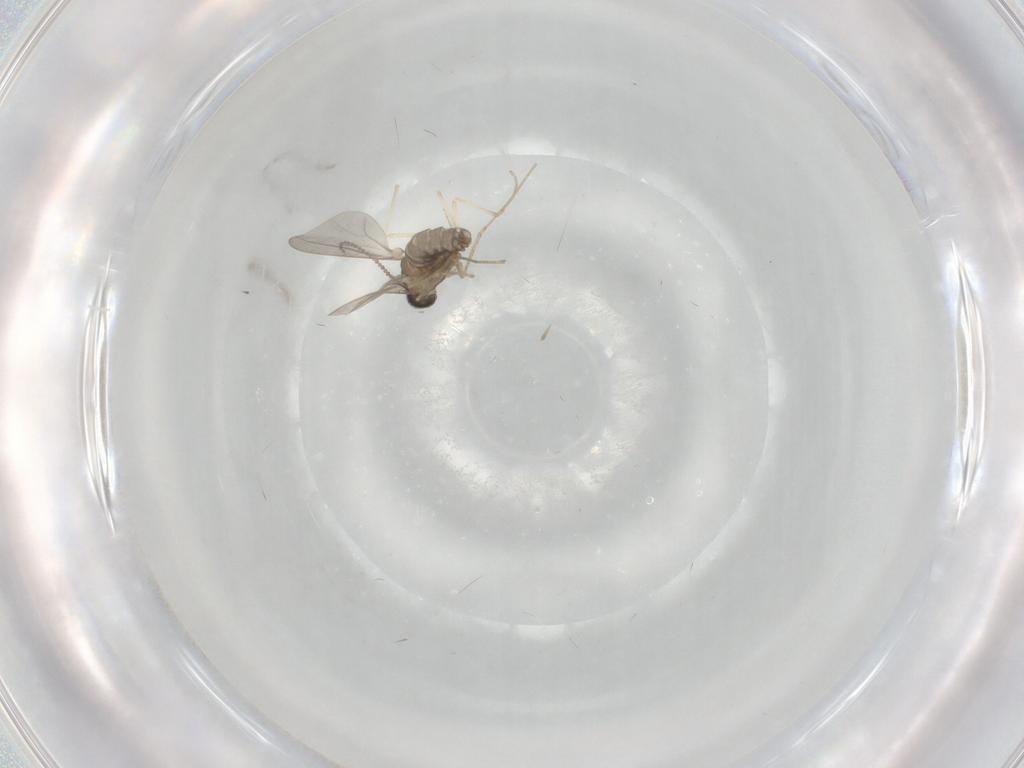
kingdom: Animalia
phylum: Arthropoda
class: Insecta
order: Diptera
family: Cecidomyiidae
